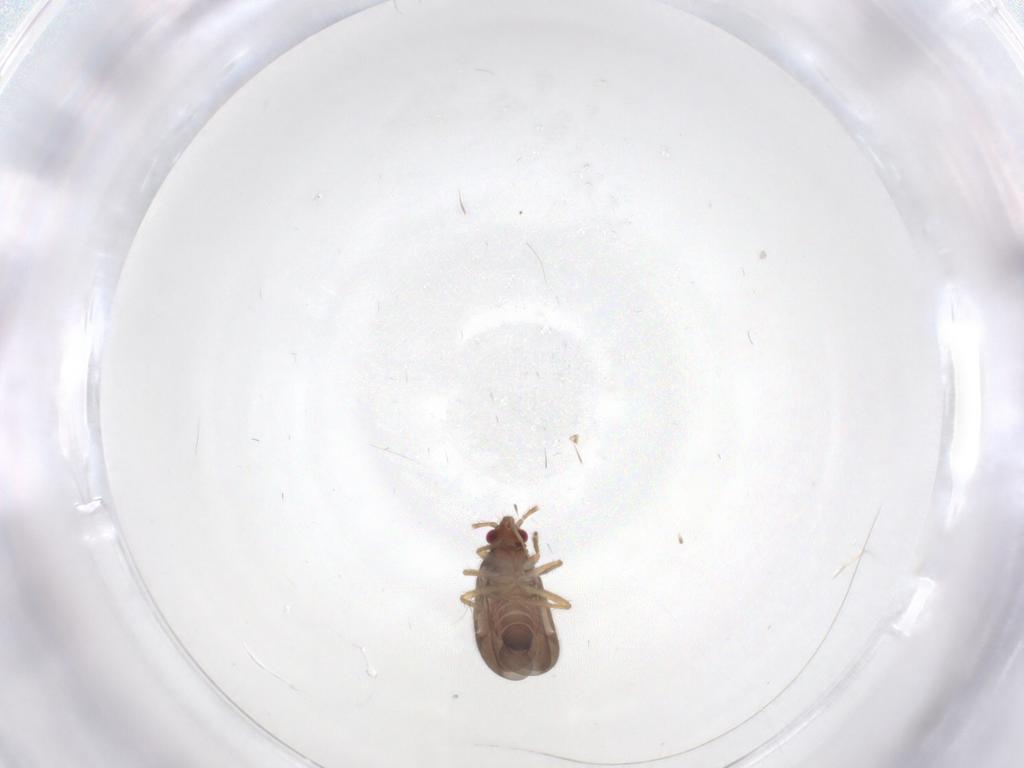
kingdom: Animalia
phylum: Arthropoda
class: Insecta
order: Hemiptera
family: Ceratocombidae
